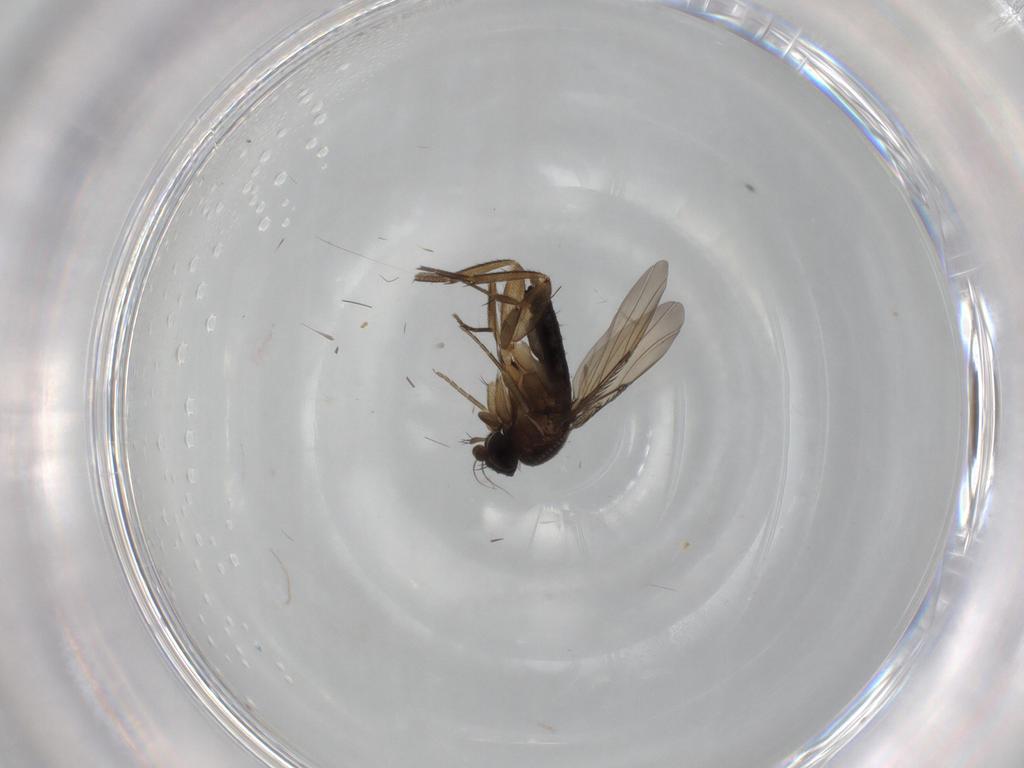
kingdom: Animalia
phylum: Arthropoda
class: Insecta
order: Diptera
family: Phoridae
